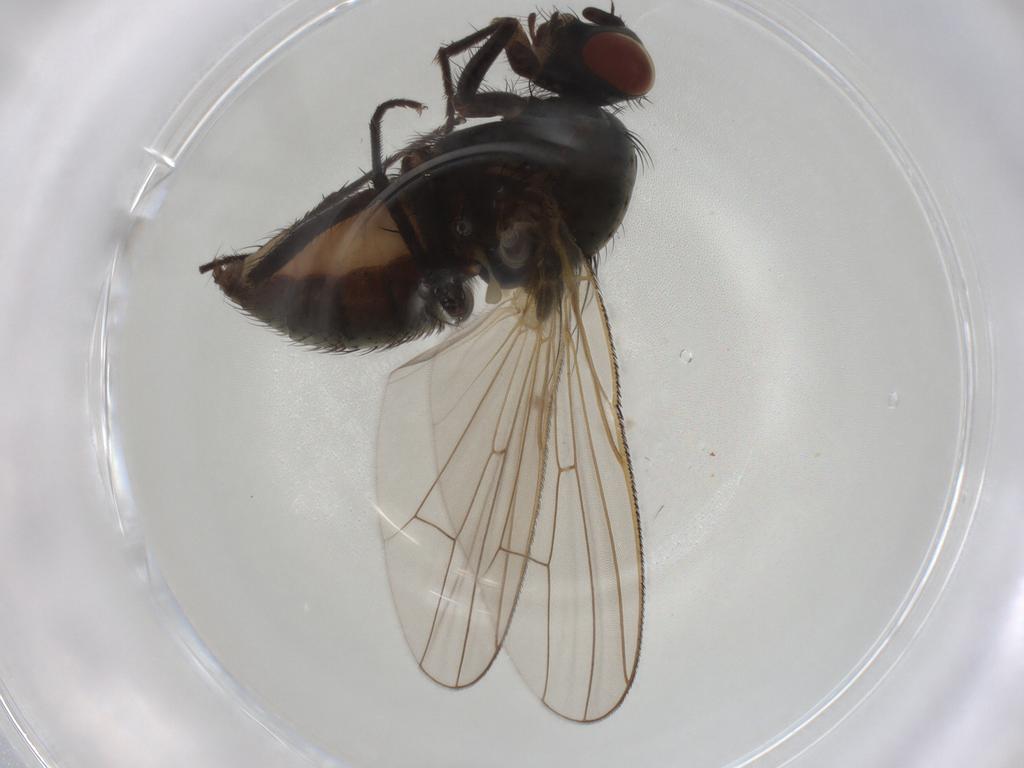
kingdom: Animalia
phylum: Arthropoda
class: Insecta
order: Diptera
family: Anthomyiidae
